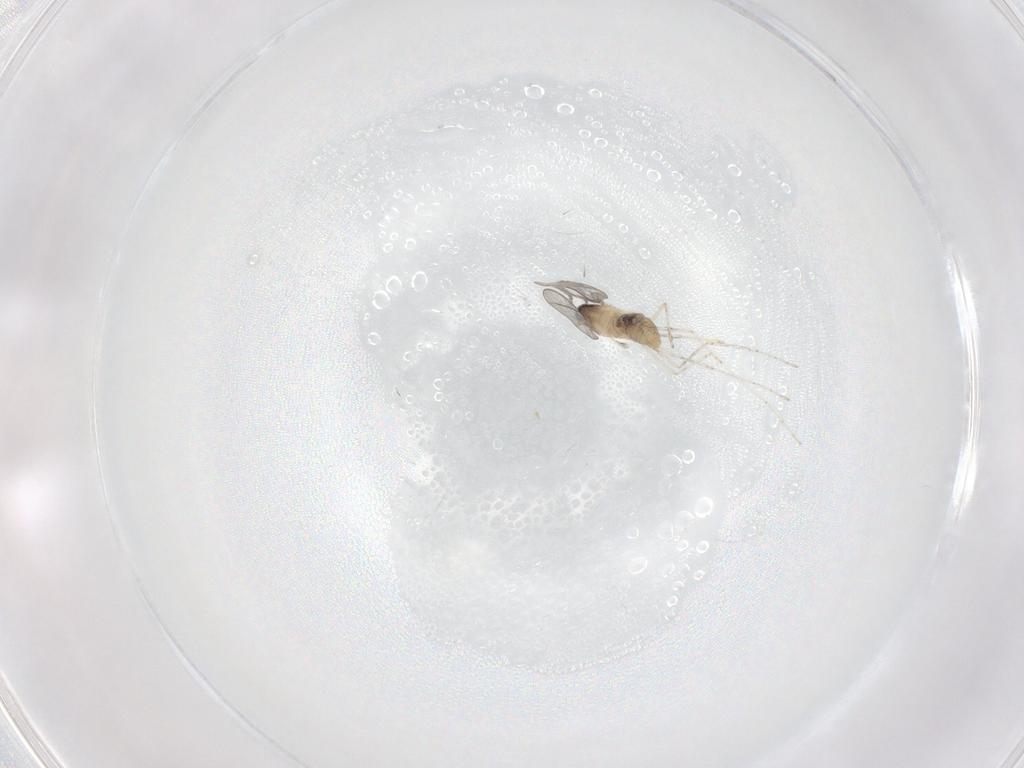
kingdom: Animalia
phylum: Arthropoda
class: Insecta
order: Diptera
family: Cecidomyiidae
